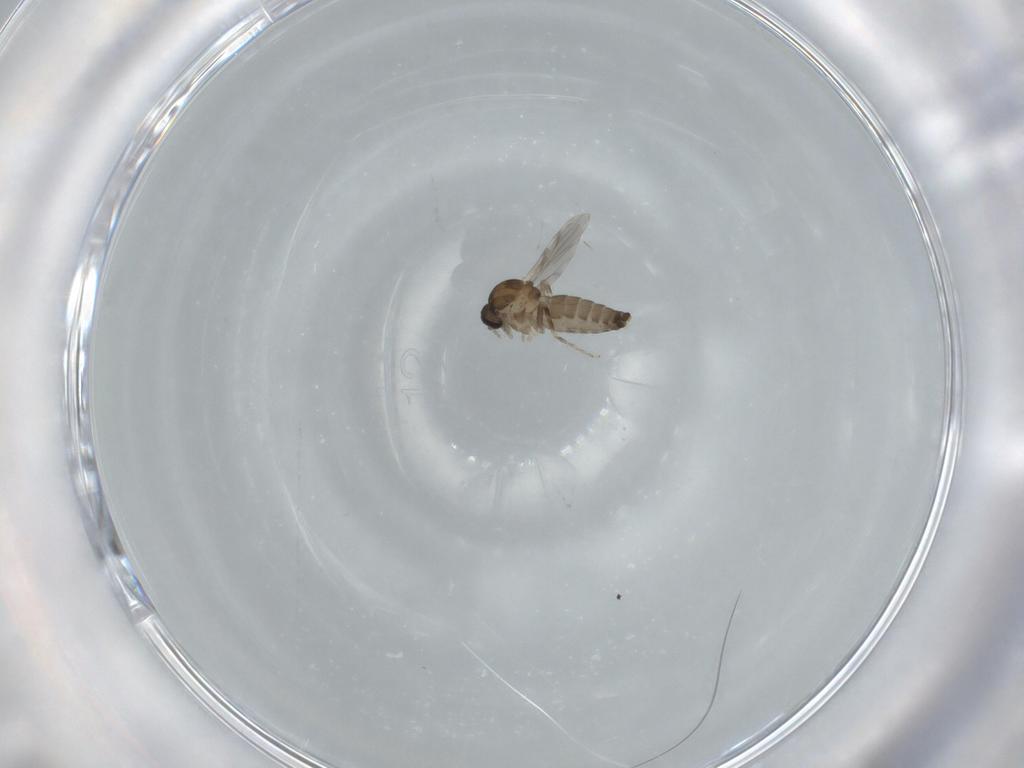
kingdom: Animalia
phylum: Arthropoda
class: Insecta
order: Diptera
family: Ceratopogonidae
